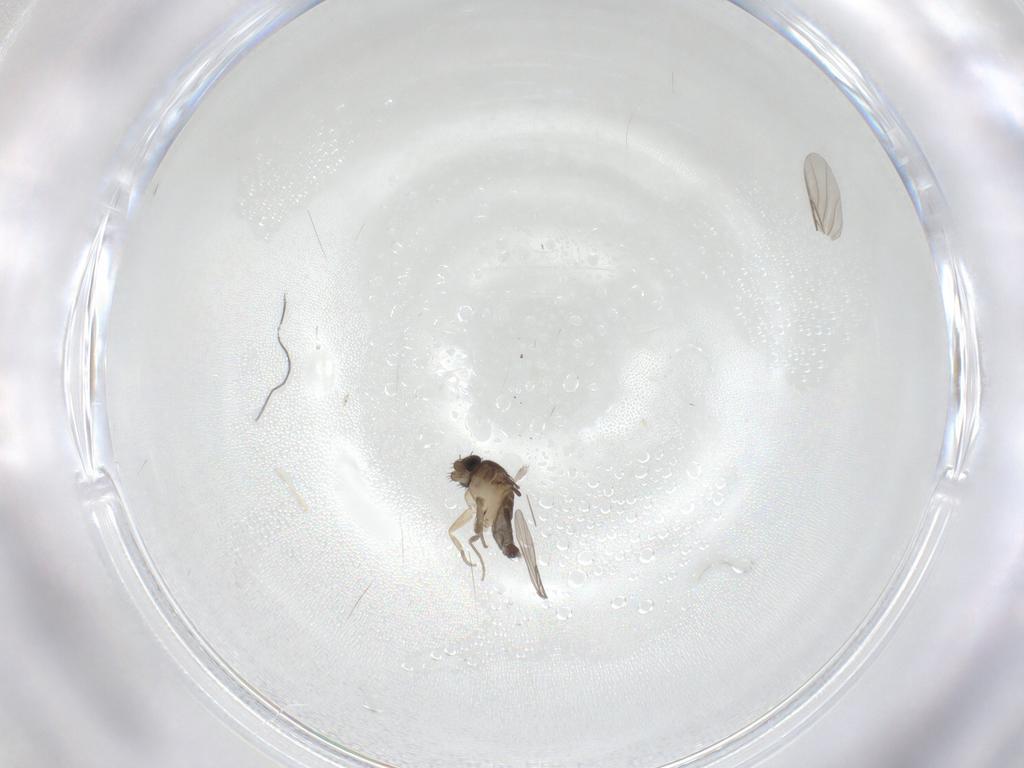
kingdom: Animalia
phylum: Arthropoda
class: Insecta
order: Diptera
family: Phoridae
